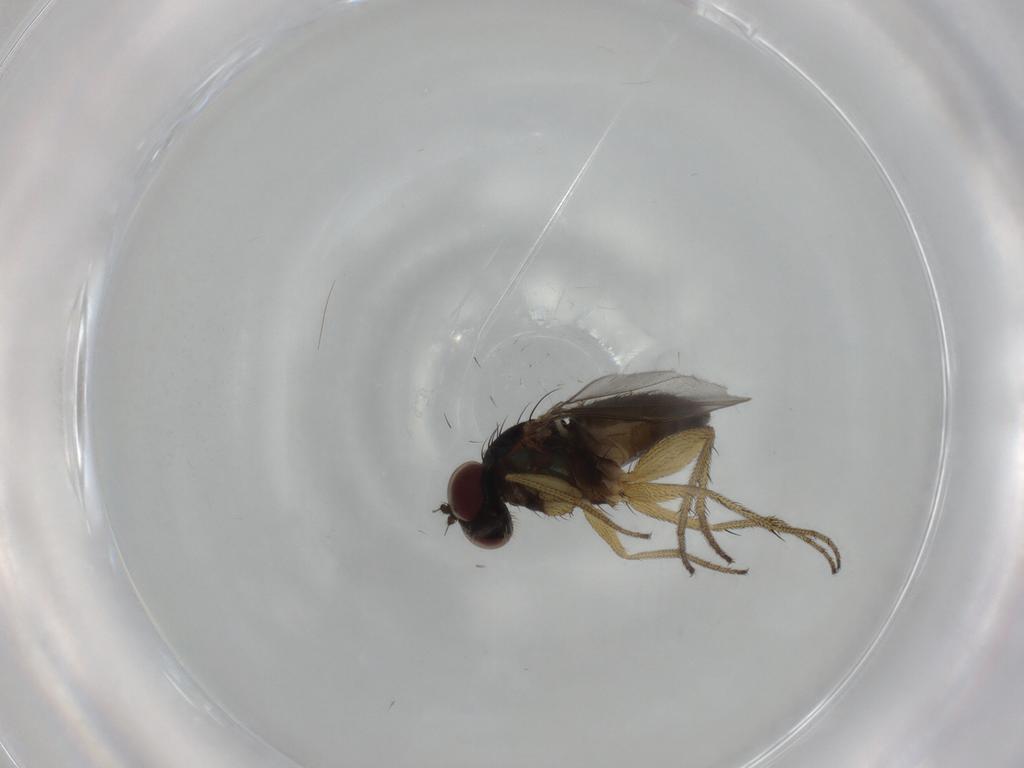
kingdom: Animalia
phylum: Arthropoda
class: Insecta
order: Diptera
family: Dolichopodidae
